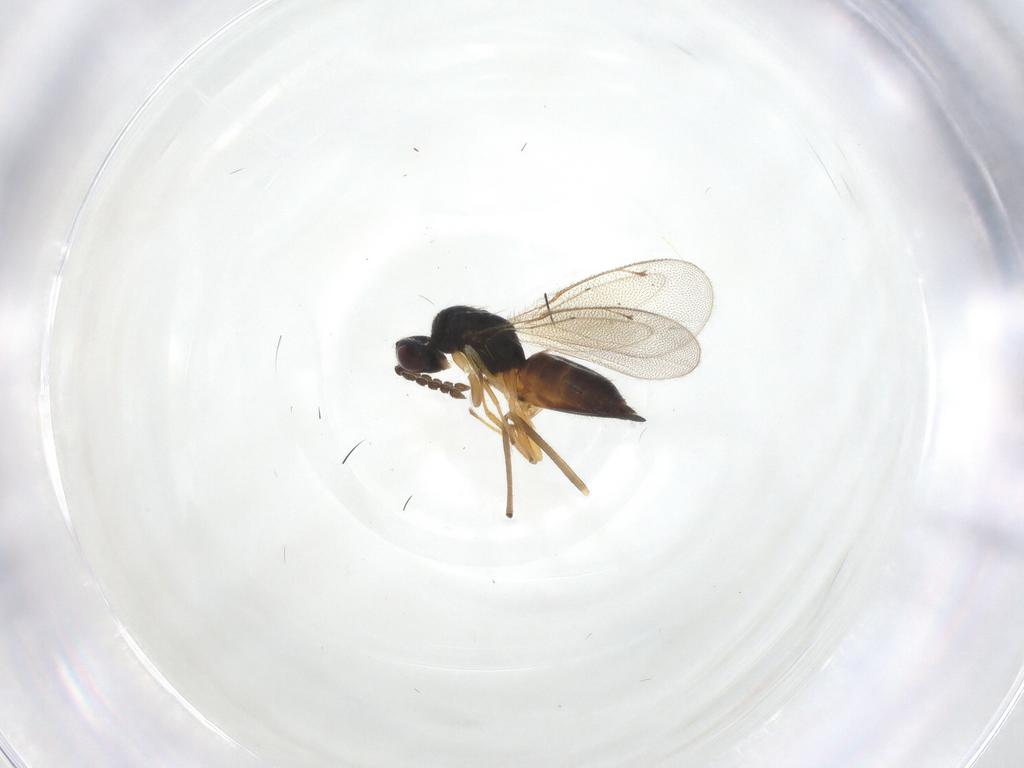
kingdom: Animalia
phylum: Arthropoda
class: Insecta
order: Hymenoptera
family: Eulophidae
